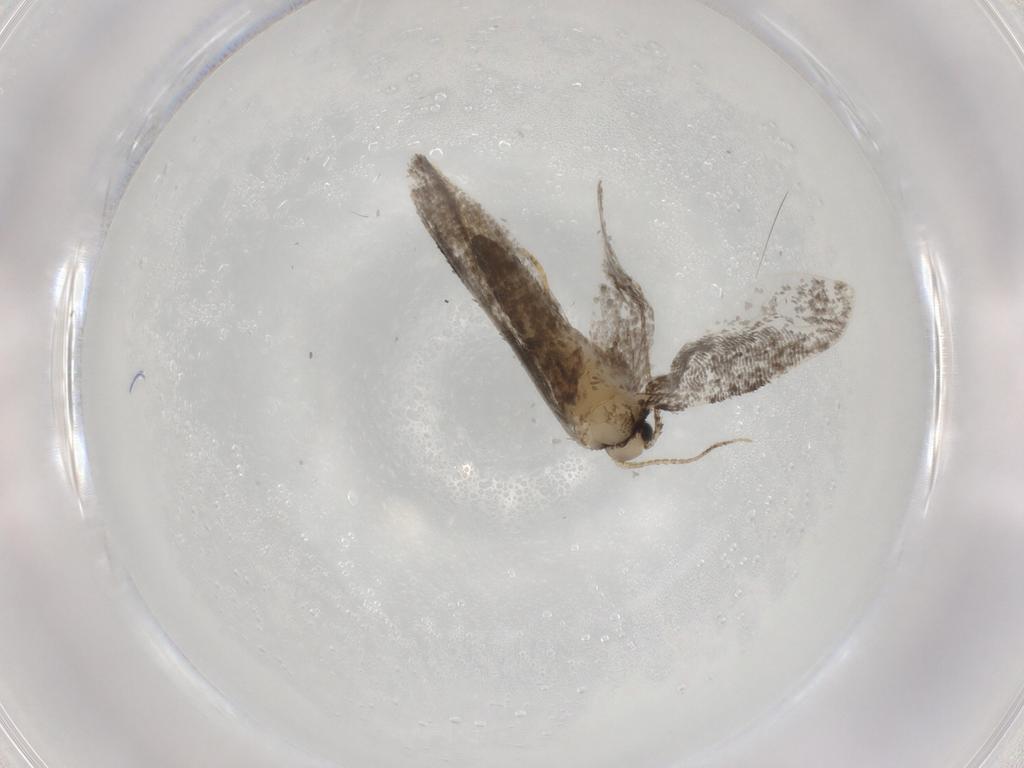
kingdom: Animalia
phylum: Arthropoda
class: Insecta
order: Lepidoptera
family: Psychidae
